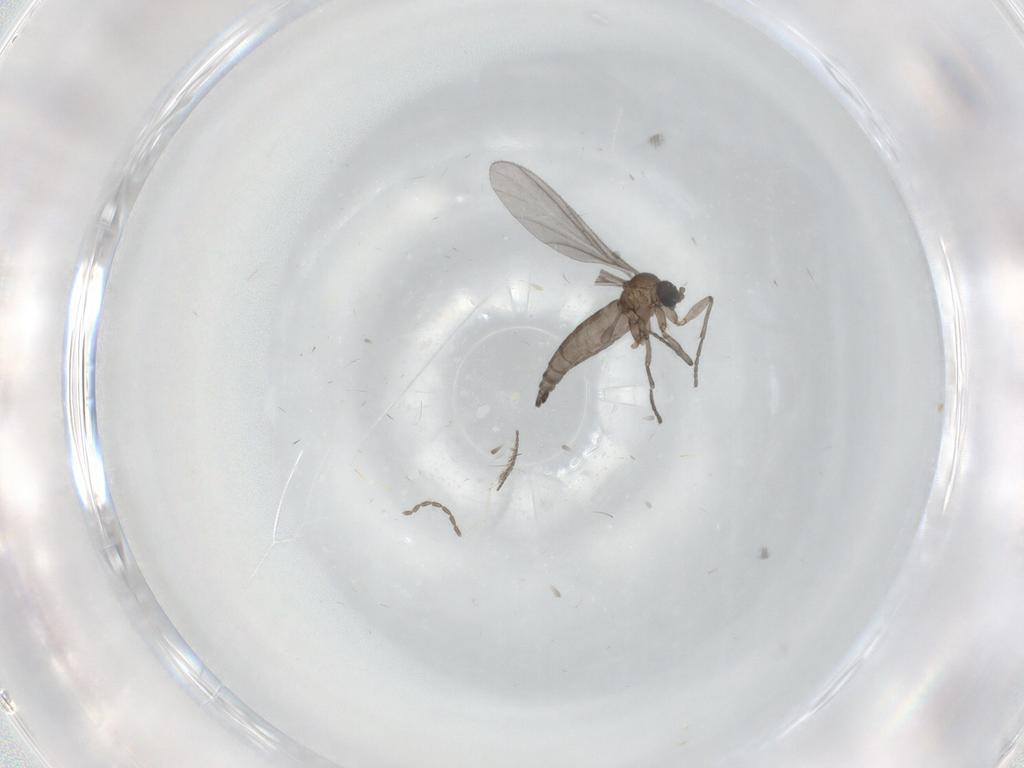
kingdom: Animalia
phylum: Arthropoda
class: Insecta
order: Diptera
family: Sciaridae
